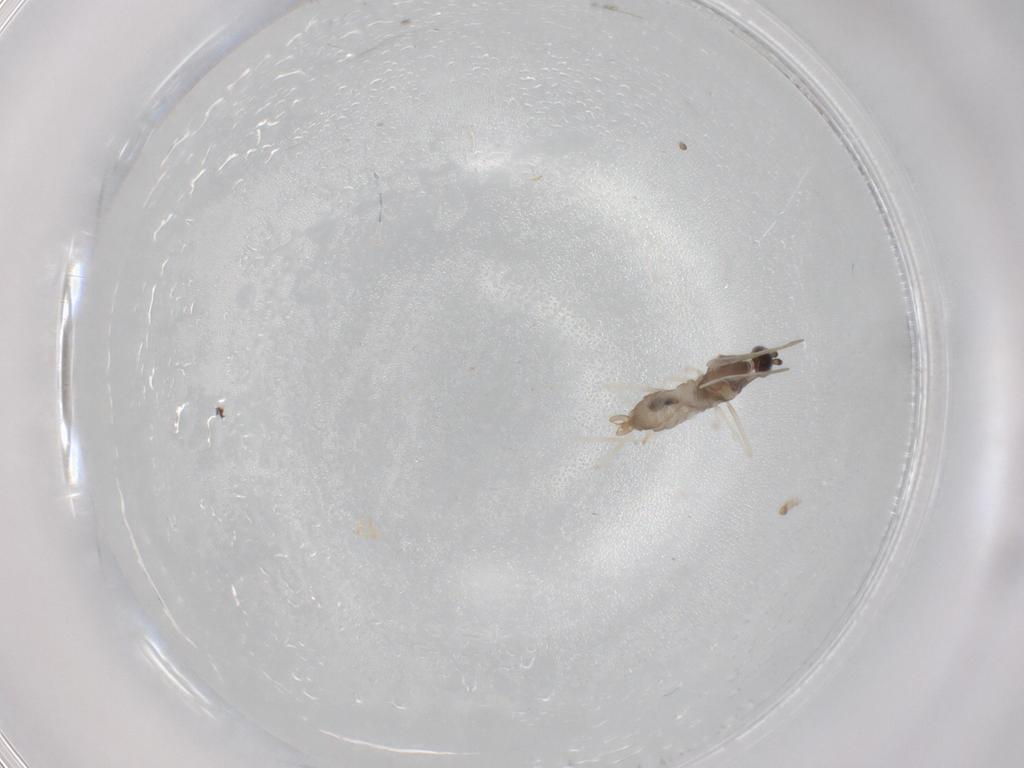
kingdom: Animalia
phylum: Arthropoda
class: Insecta
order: Diptera
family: Cecidomyiidae
